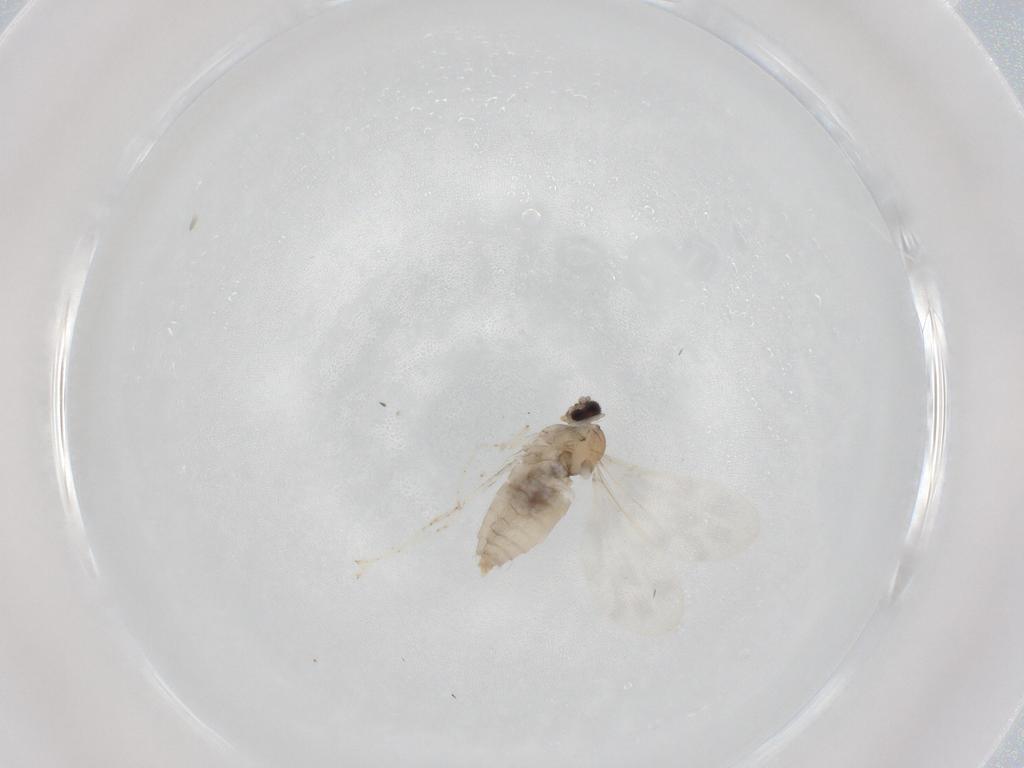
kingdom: Animalia
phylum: Arthropoda
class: Insecta
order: Diptera
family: Cecidomyiidae
